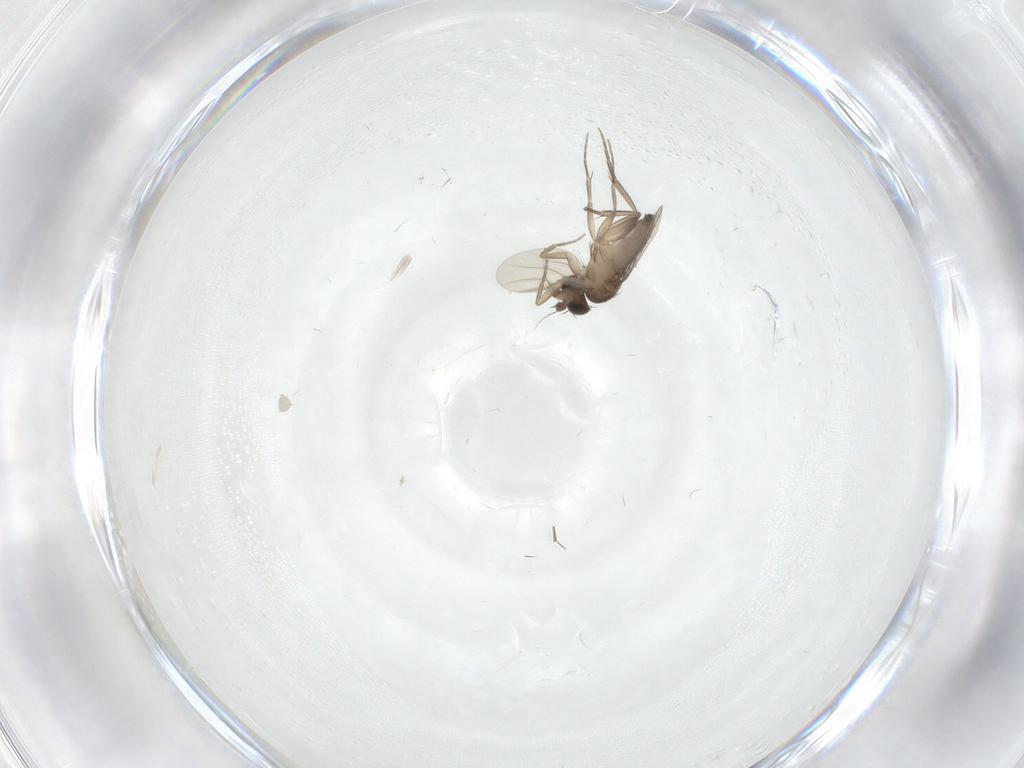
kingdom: Animalia
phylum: Arthropoda
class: Insecta
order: Diptera
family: Phoridae
